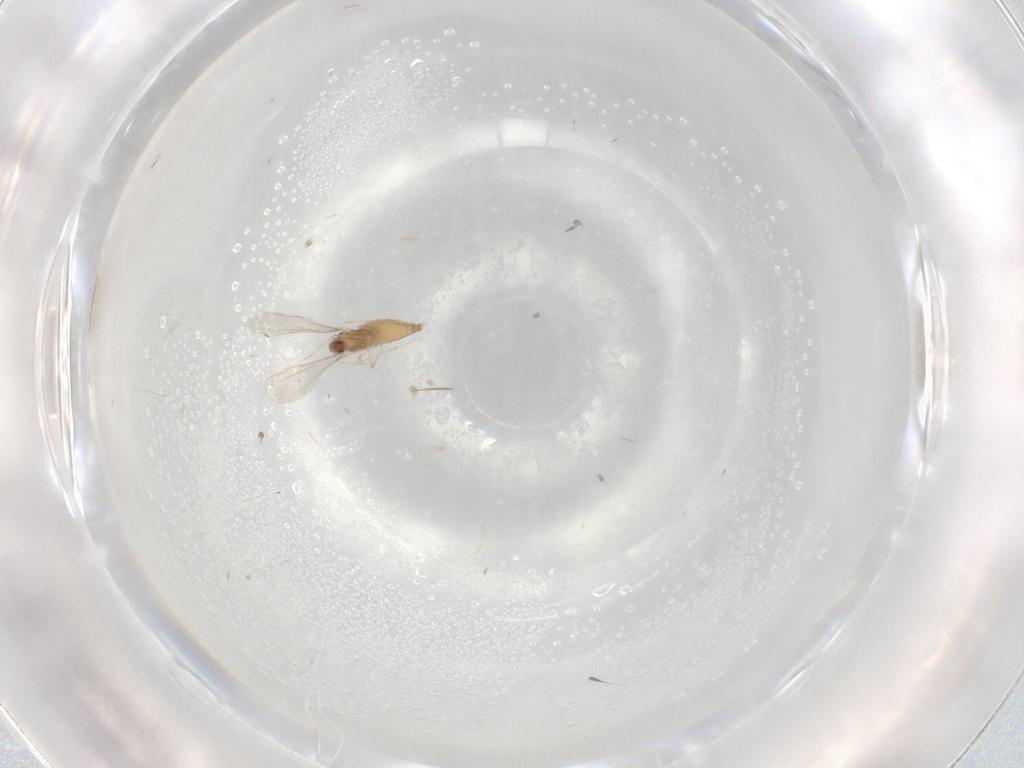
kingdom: Animalia
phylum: Arthropoda
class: Insecta
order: Diptera
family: Cecidomyiidae
